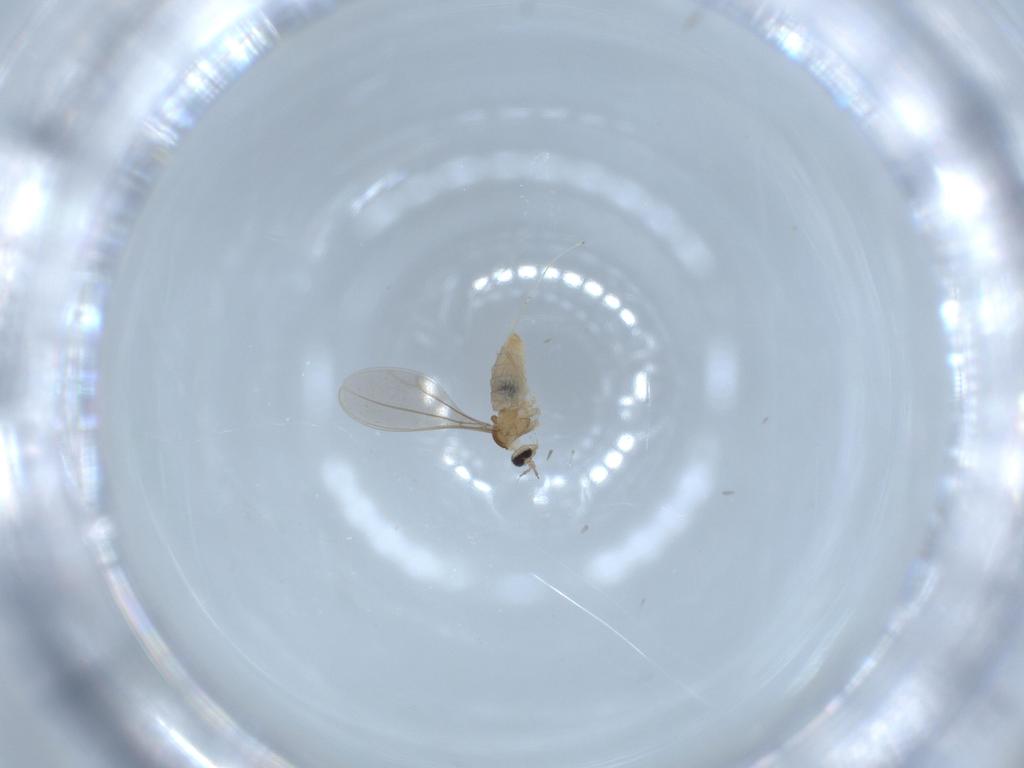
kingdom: Animalia
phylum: Arthropoda
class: Insecta
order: Diptera
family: Cecidomyiidae
